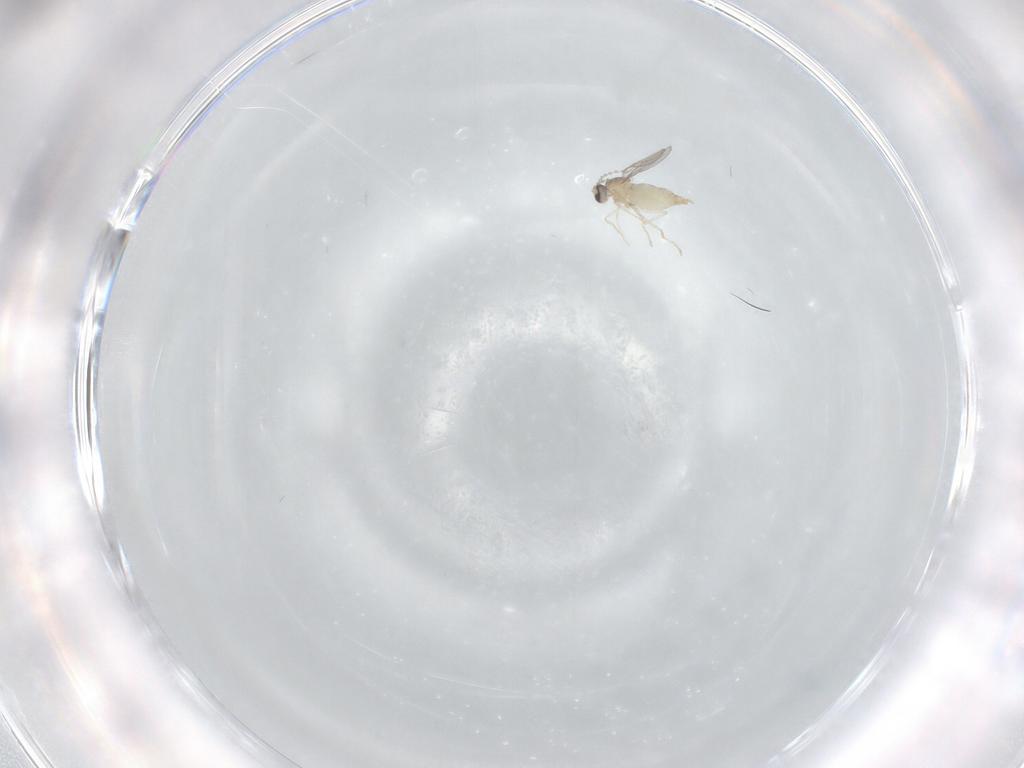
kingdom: Animalia
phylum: Arthropoda
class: Insecta
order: Diptera
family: Cecidomyiidae
